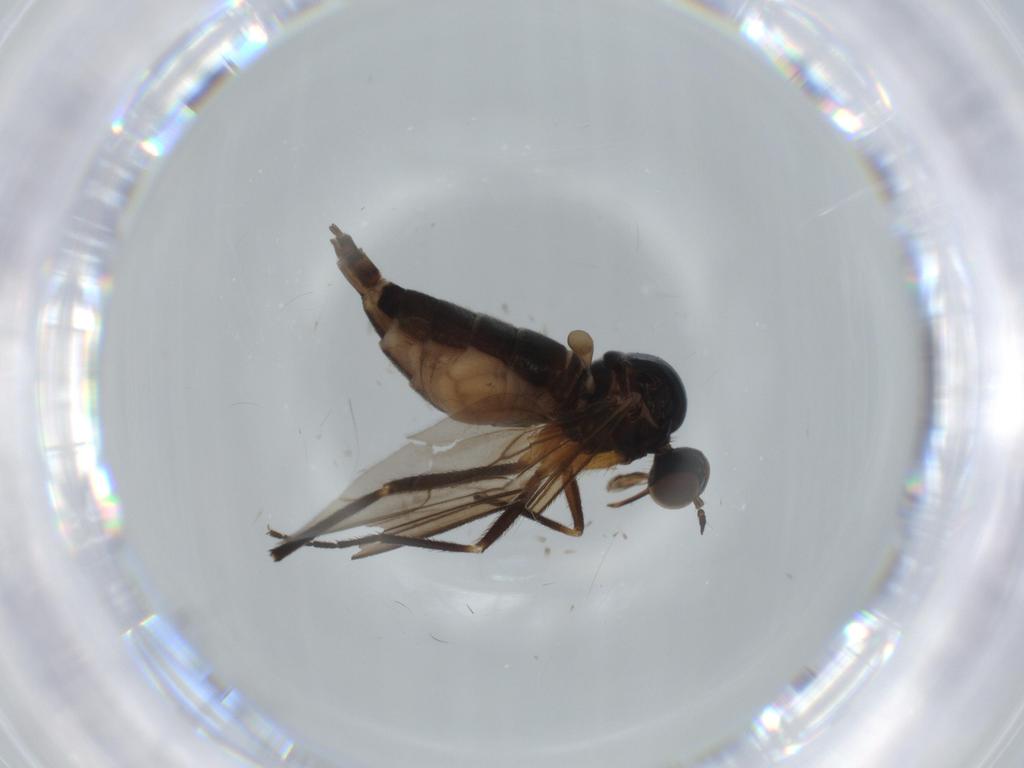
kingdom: Animalia
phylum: Arthropoda
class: Insecta
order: Diptera
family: Empididae
